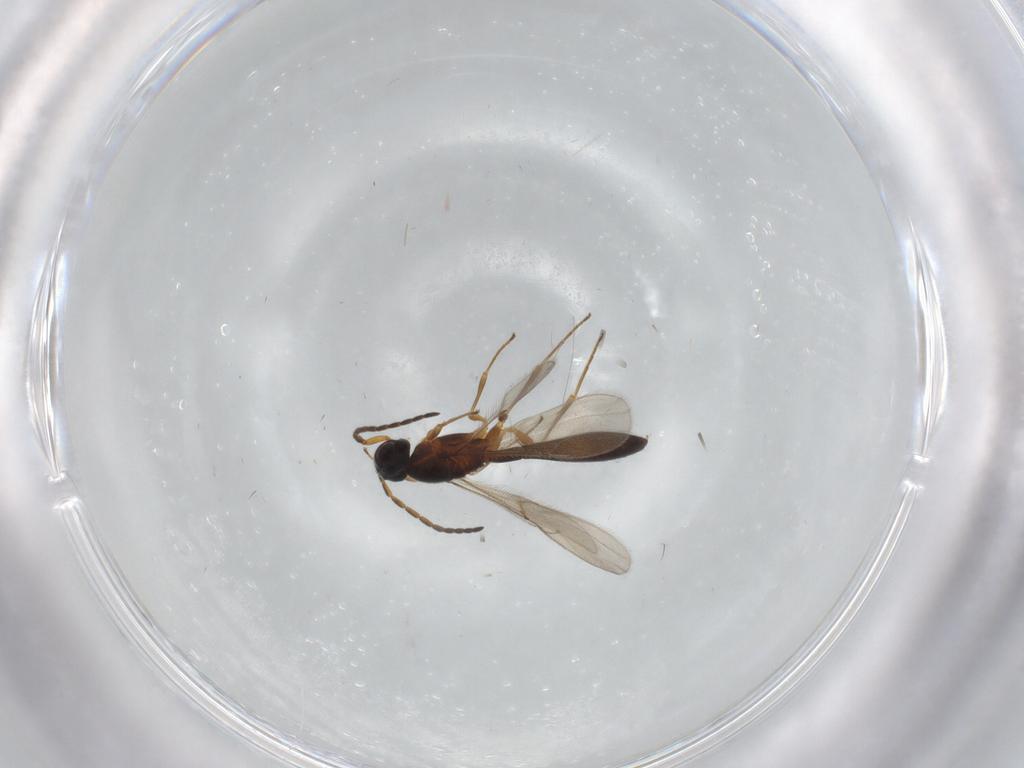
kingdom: Animalia
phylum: Arthropoda
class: Insecta
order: Hymenoptera
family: Scelionidae
